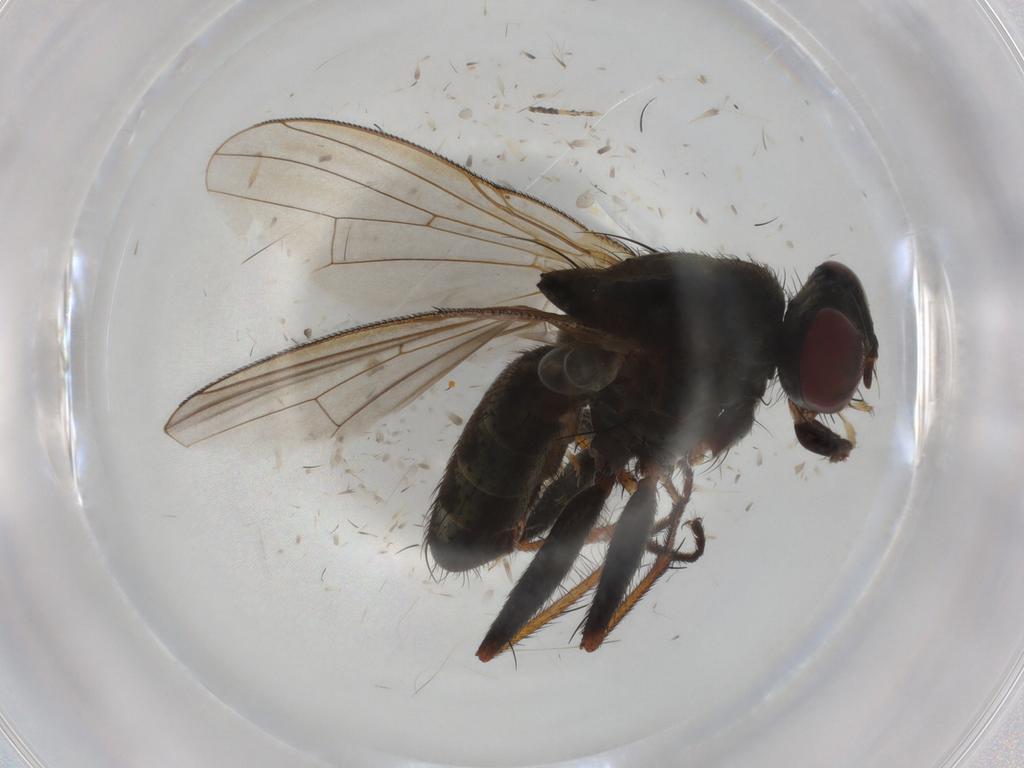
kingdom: Animalia
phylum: Arthropoda
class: Insecta
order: Diptera
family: Muscidae
